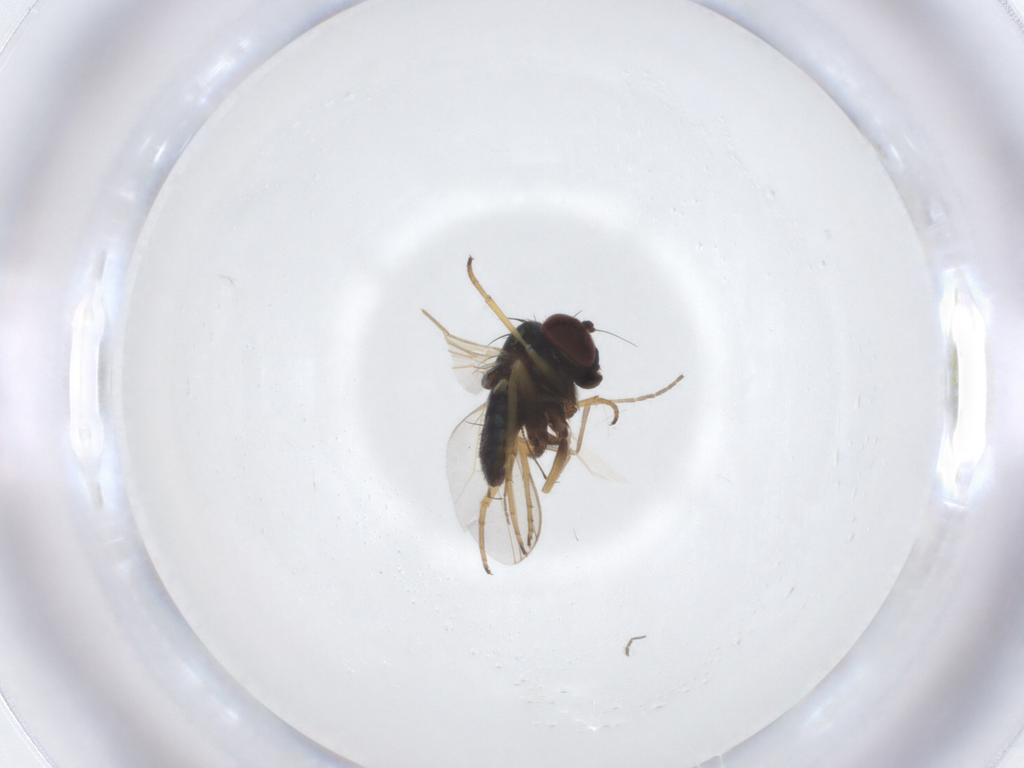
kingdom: Animalia
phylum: Arthropoda
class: Insecta
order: Diptera
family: Dolichopodidae
